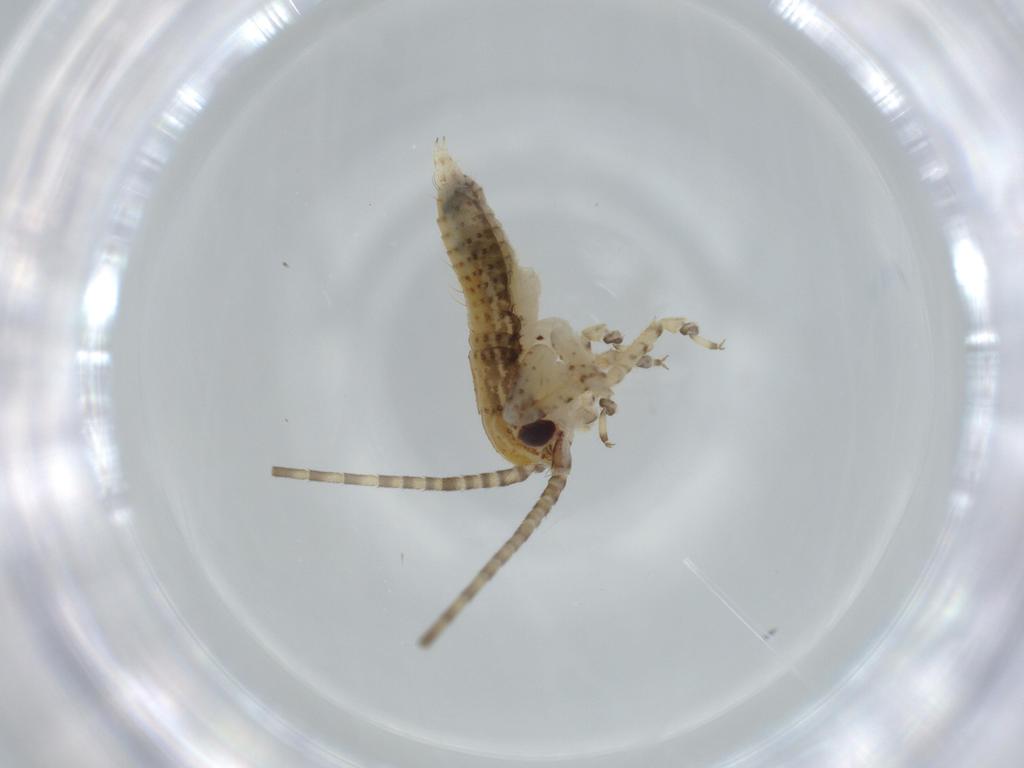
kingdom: Animalia
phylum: Arthropoda
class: Insecta
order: Orthoptera
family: Gryllidae
